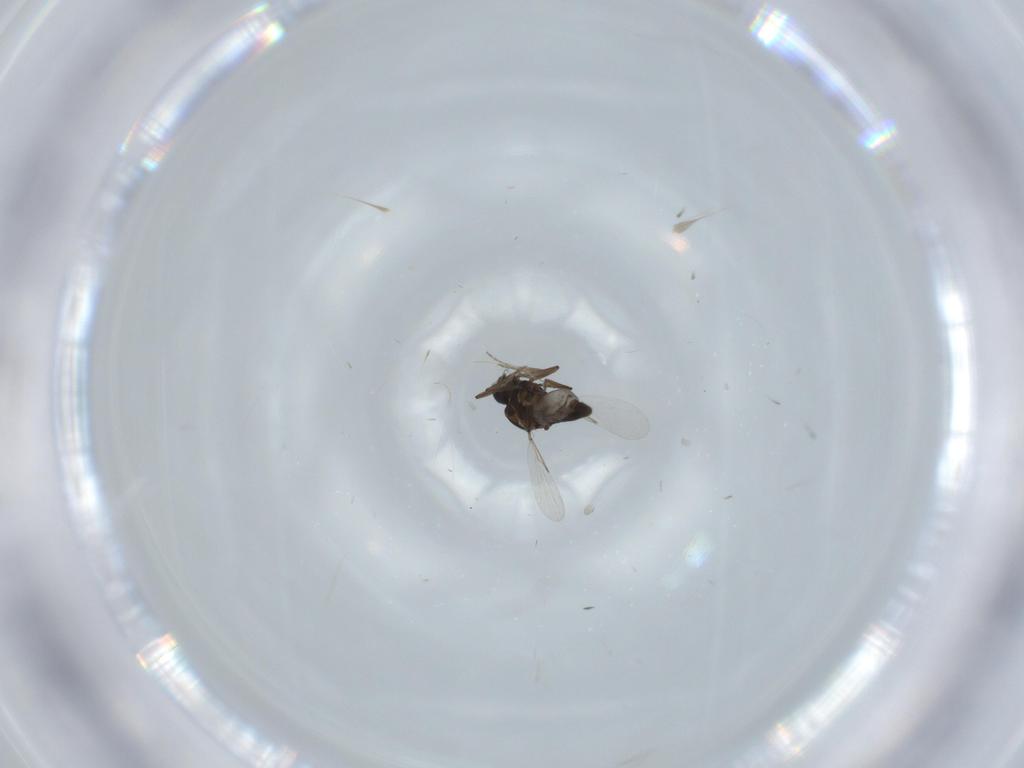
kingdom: Animalia
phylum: Arthropoda
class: Insecta
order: Diptera
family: Ceratopogonidae
